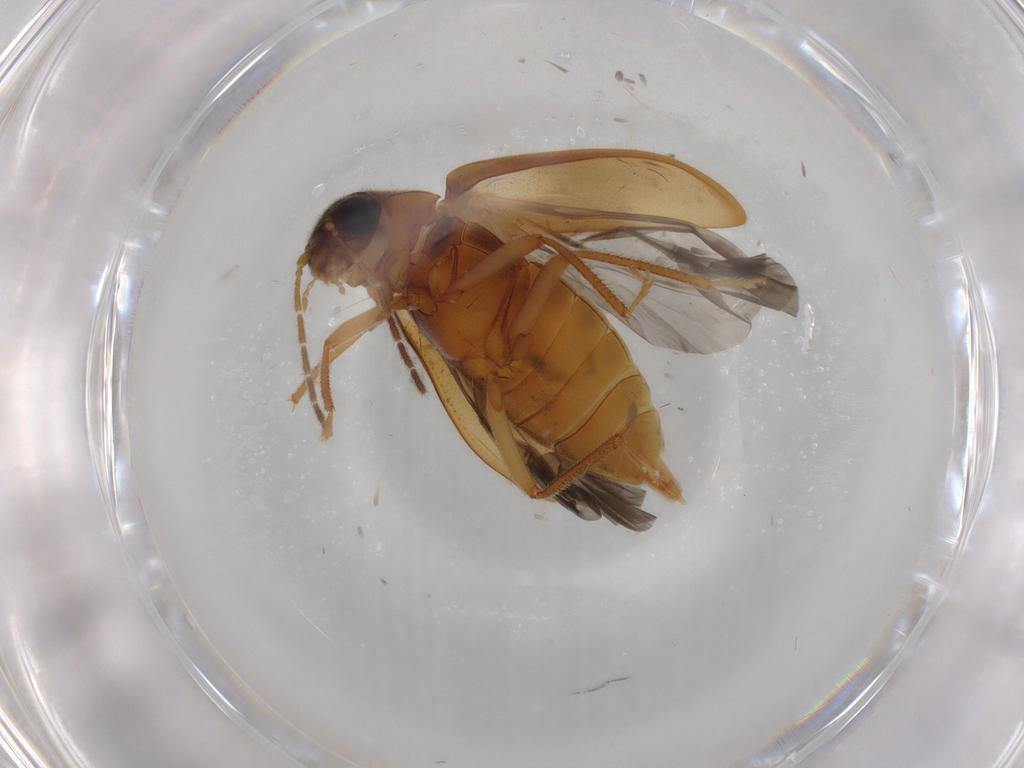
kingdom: Animalia
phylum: Arthropoda
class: Insecta
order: Coleoptera
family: Ptilodactylidae
